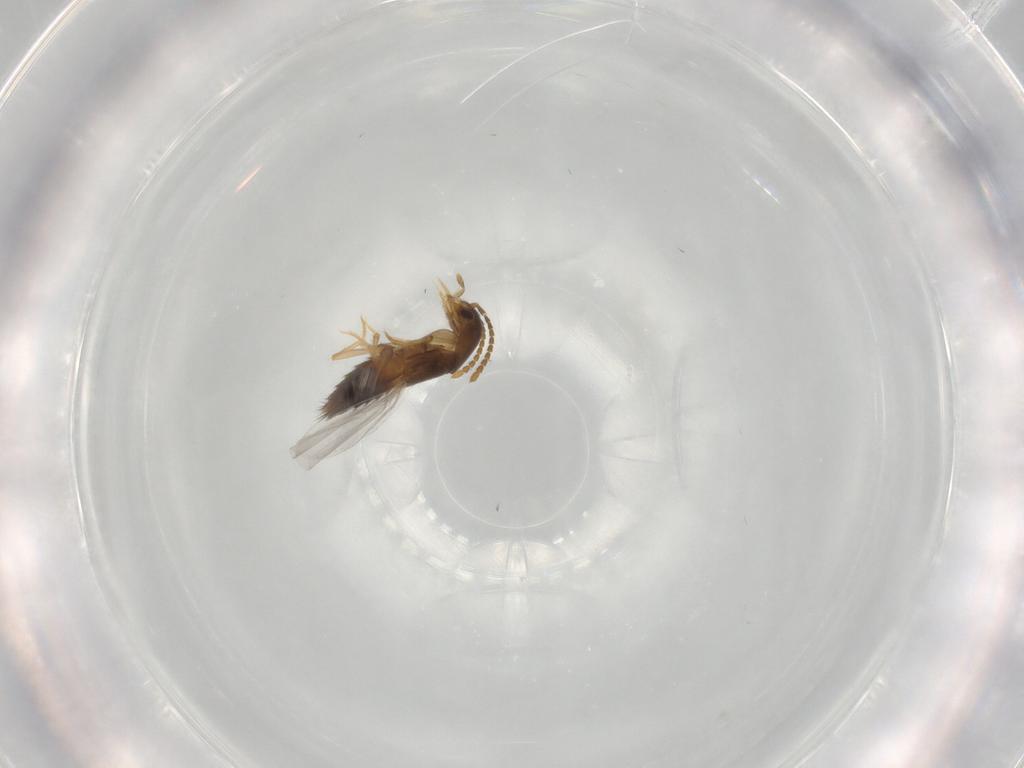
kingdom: Animalia
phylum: Arthropoda
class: Insecta
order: Coleoptera
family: Staphylinidae
